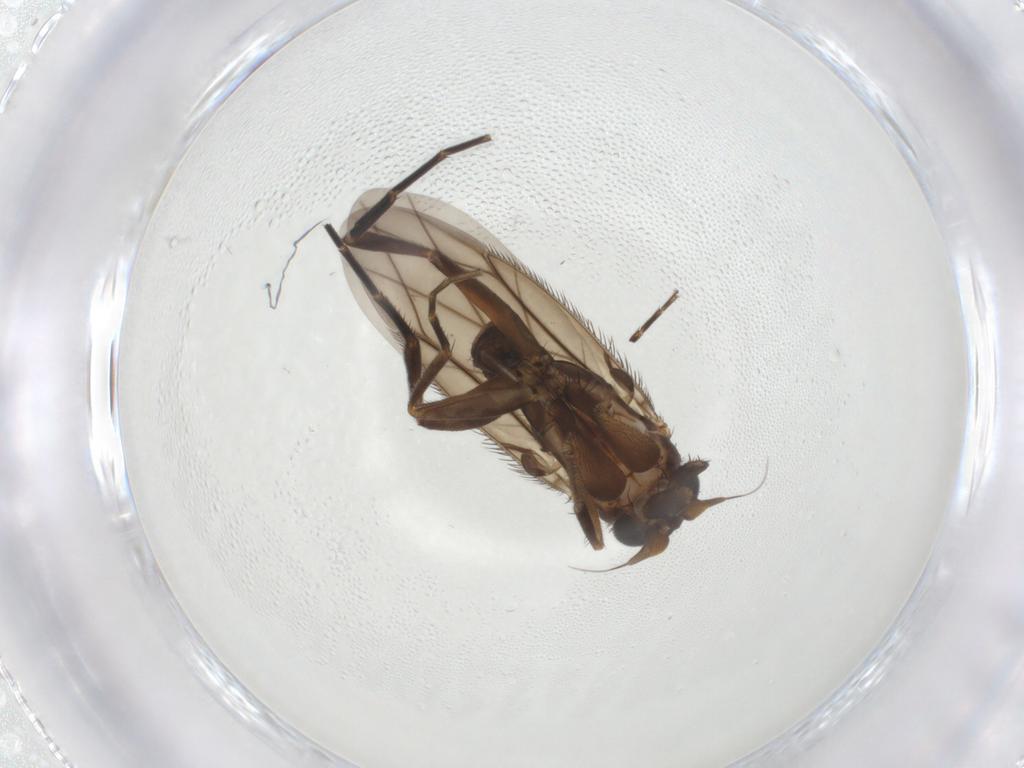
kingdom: Animalia
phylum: Arthropoda
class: Insecta
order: Diptera
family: Phoridae
